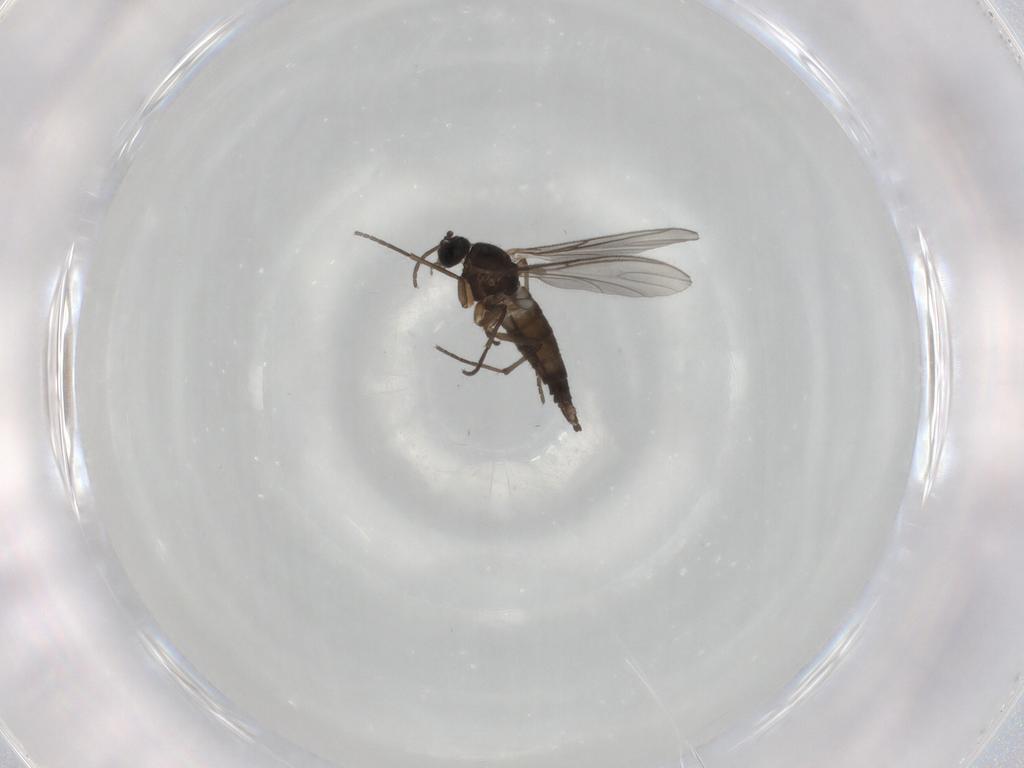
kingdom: Animalia
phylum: Arthropoda
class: Insecta
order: Diptera
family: Sciaridae
